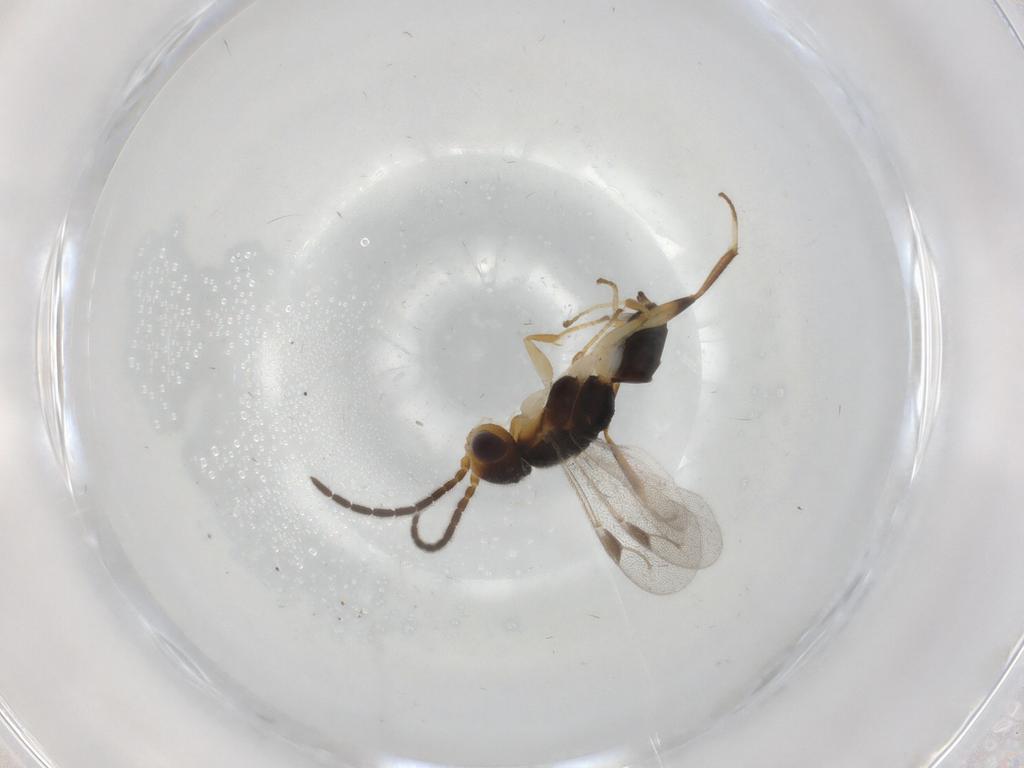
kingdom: Animalia
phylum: Arthropoda
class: Insecta
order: Hymenoptera
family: Dryinidae
